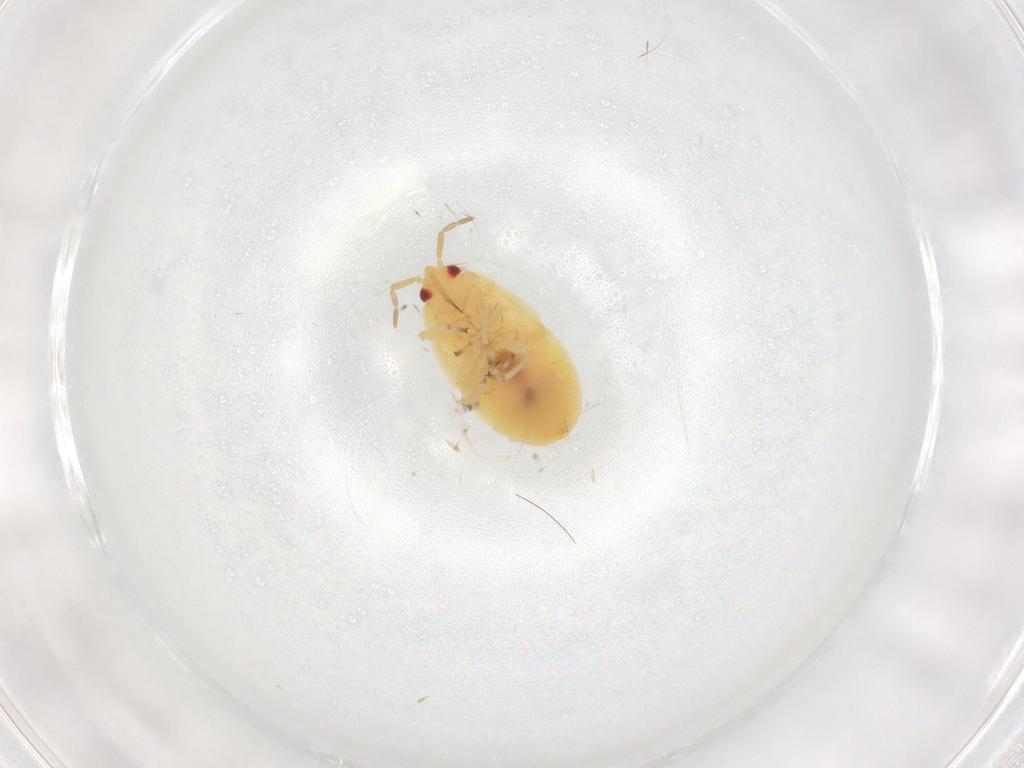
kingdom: Animalia
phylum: Arthropoda
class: Insecta
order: Hemiptera
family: Anthocoridae
